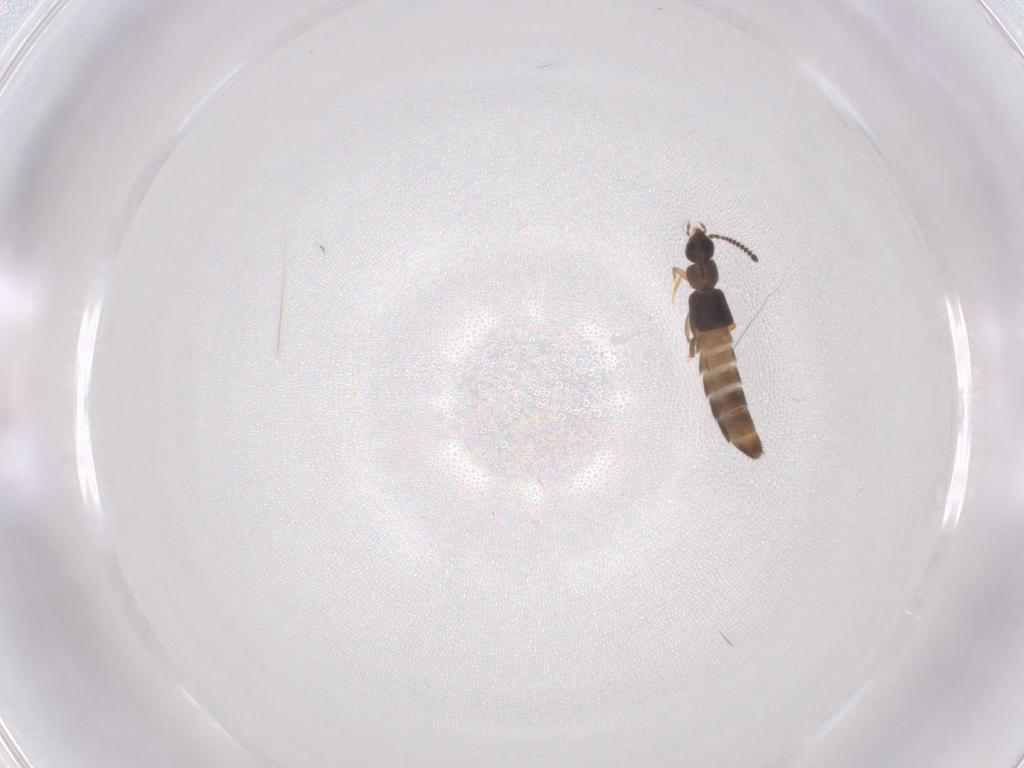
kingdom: Animalia
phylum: Arthropoda
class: Insecta
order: Coleoptera
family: Staphylinidae
